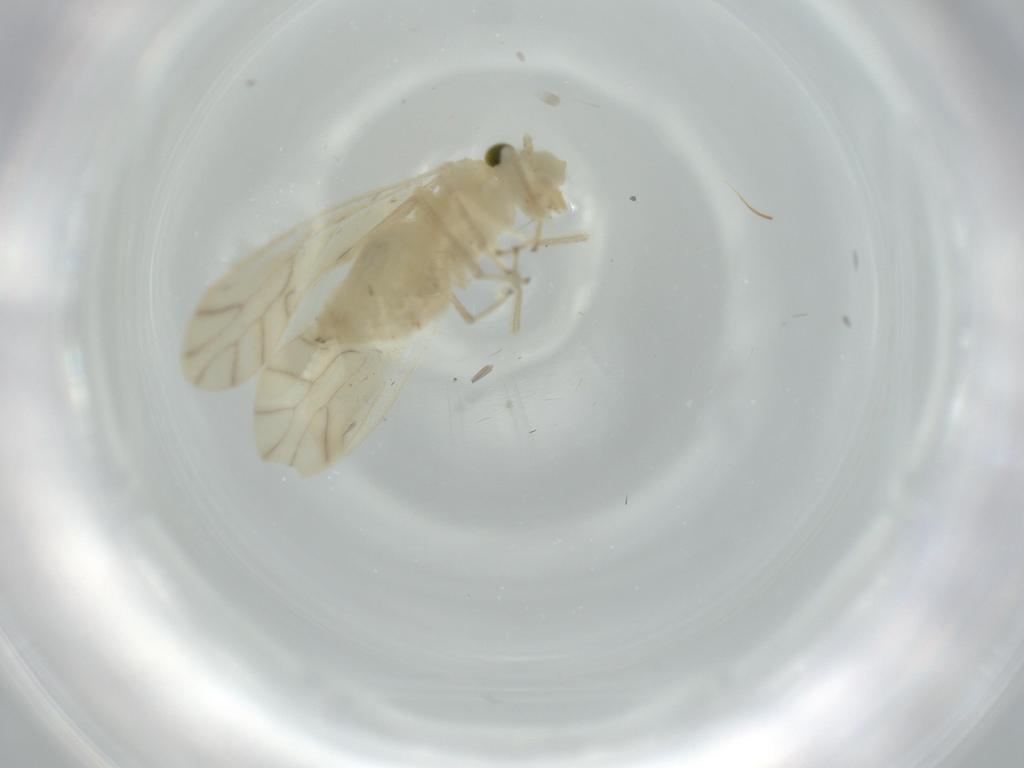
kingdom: Animalia
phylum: Arthropoda
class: Insecta
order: Psocodea
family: Caeciliusidae
